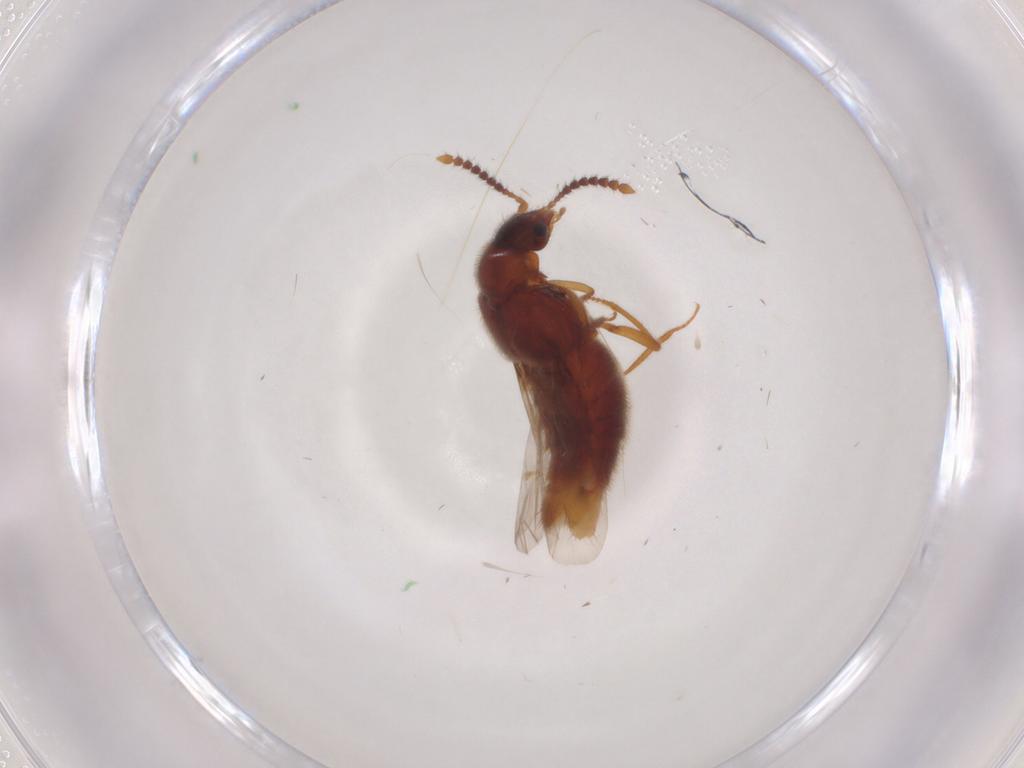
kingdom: Animalia
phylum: Arthropoda
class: Insecta
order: Coleoptera
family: Staphylinidae
